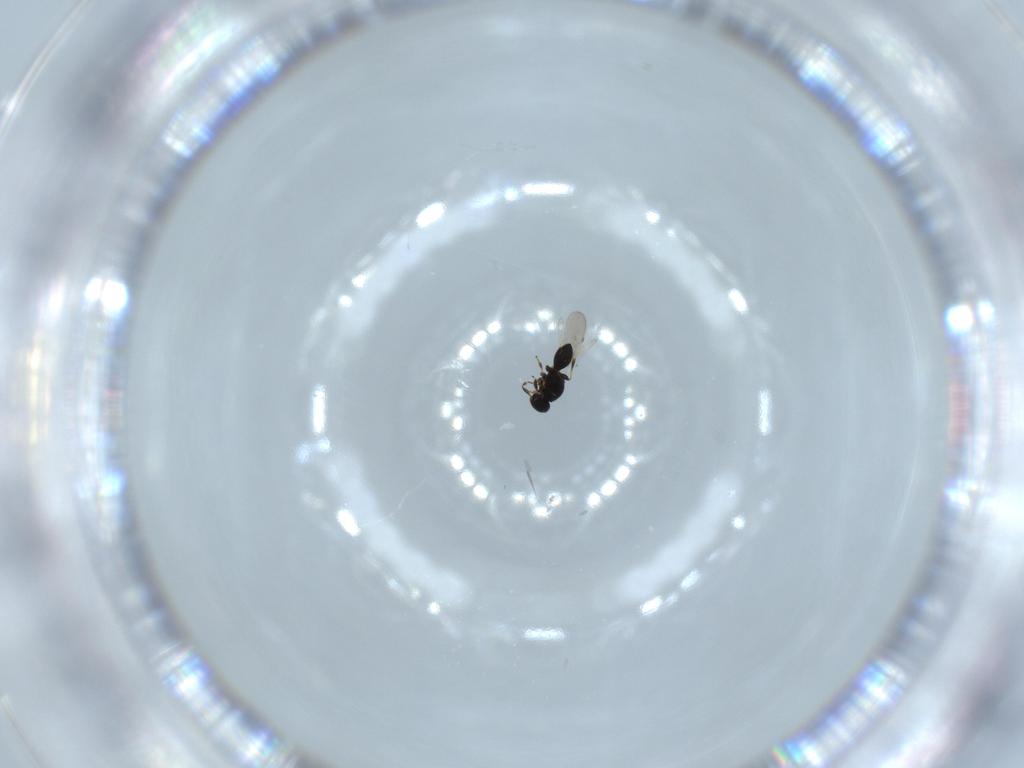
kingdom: Animalia
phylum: Arthropoda
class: Insecta
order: Hymenoptera
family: Platygastridae
